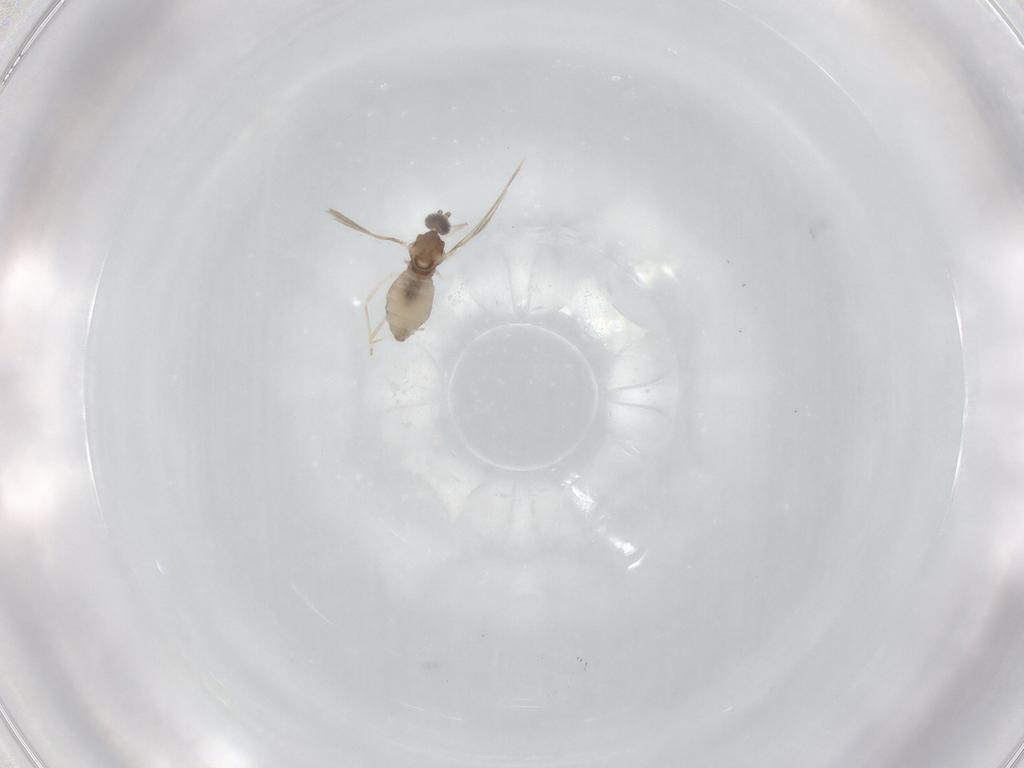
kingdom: Animalia
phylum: Arthropoda
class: Insecta
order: Diptera
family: Cecidomyiidae
